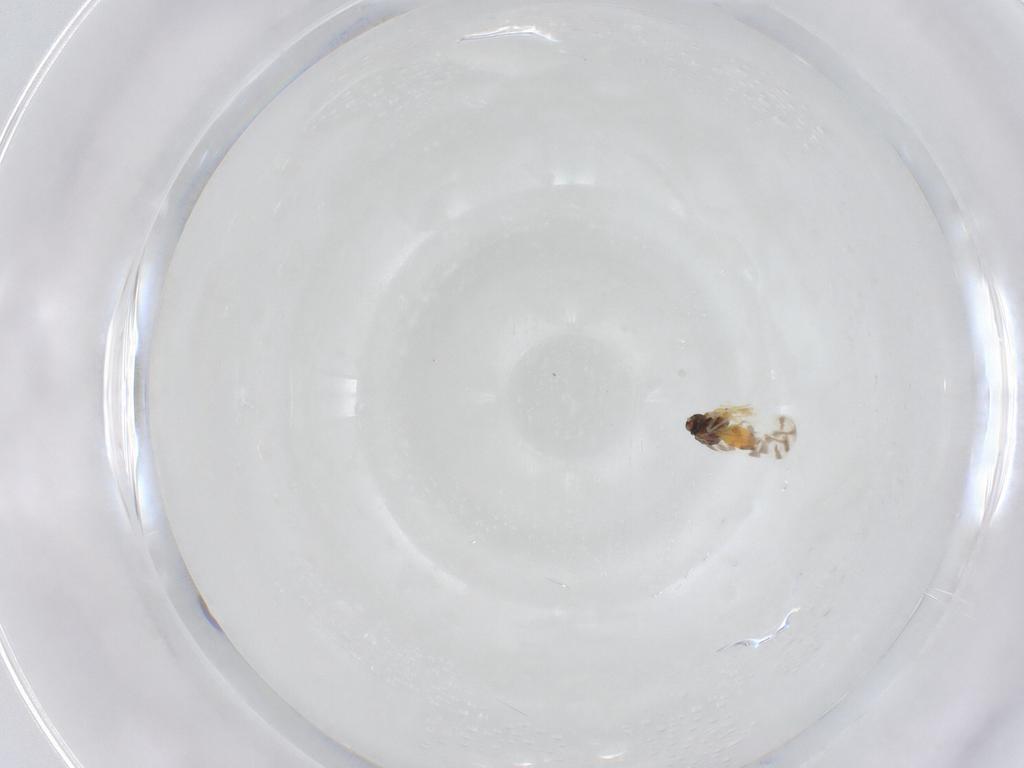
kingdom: Animalia
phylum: Arthropoda
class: Insecta
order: Hemiptera
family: Aleyrodidae
